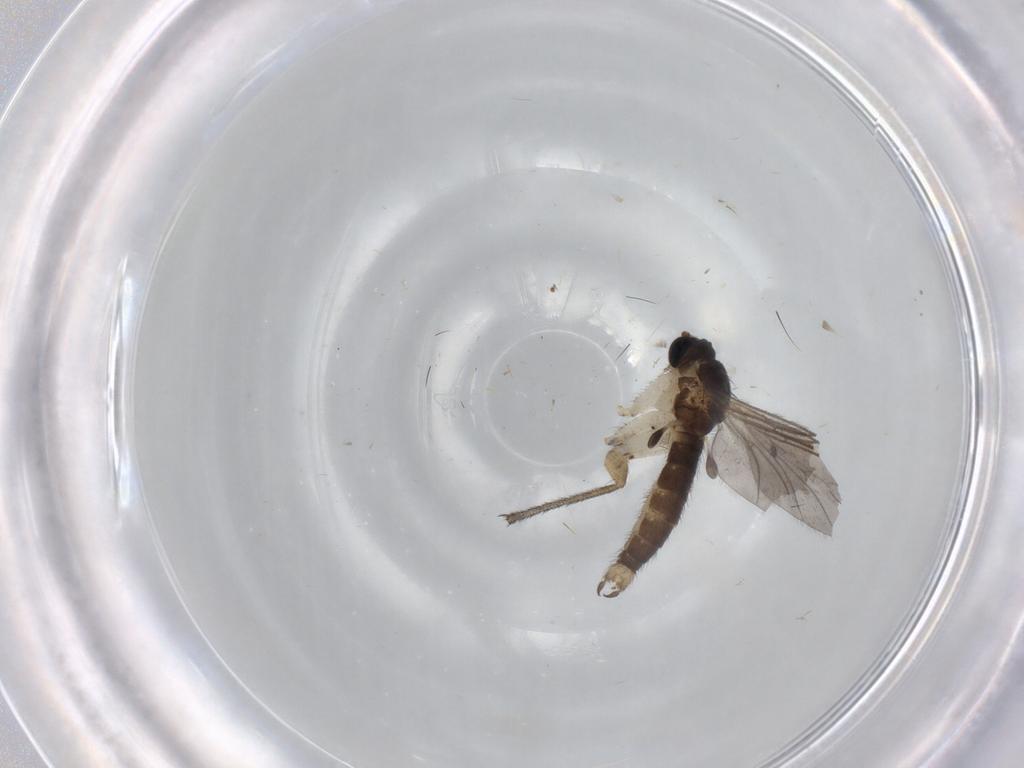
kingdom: Animalia
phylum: Arthropoda
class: Insecta
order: Diptera
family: Sciaridae
